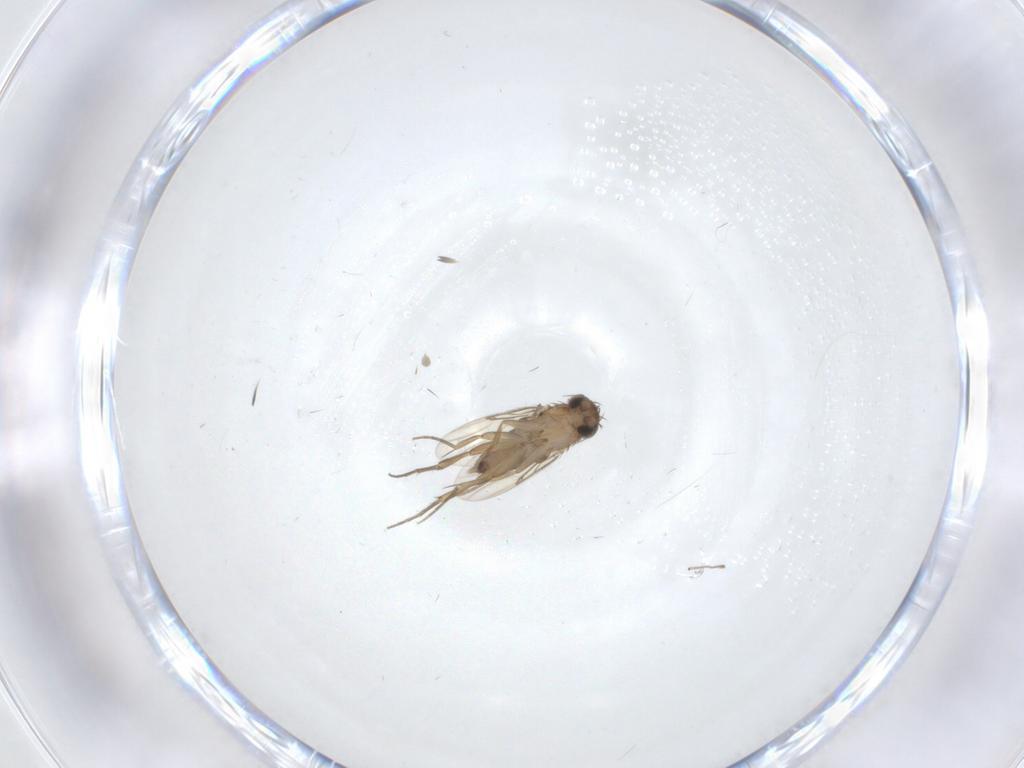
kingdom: Animalia
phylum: Arthropoda
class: Insecta
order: Diptera
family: Phoridae
